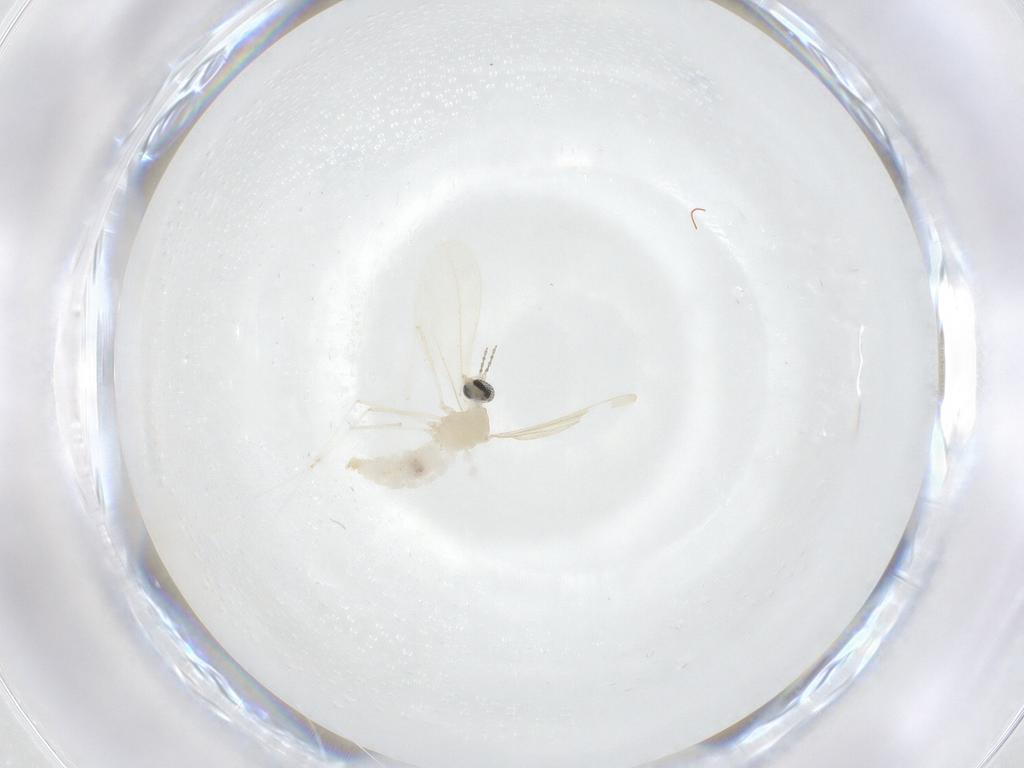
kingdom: Animalia
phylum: Arthropoda
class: Insecta
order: Diptera
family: Cecidomyiidae
